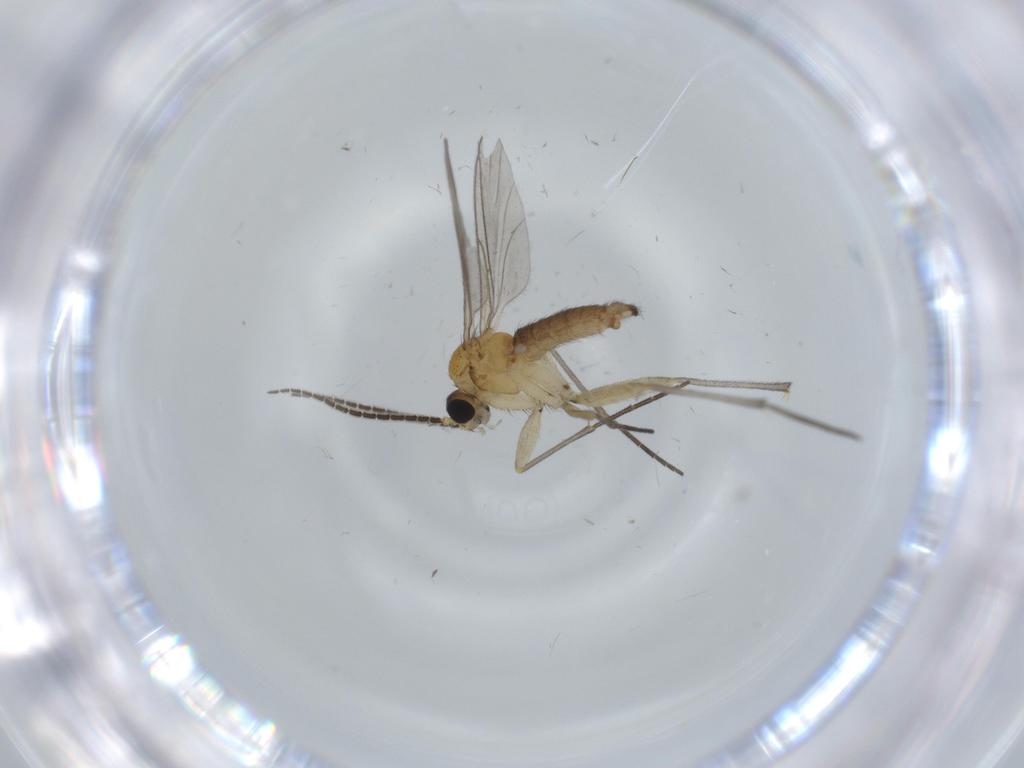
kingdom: Animalia
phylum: Arthropoda
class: Insecta
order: Diptera
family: Sciaridae
